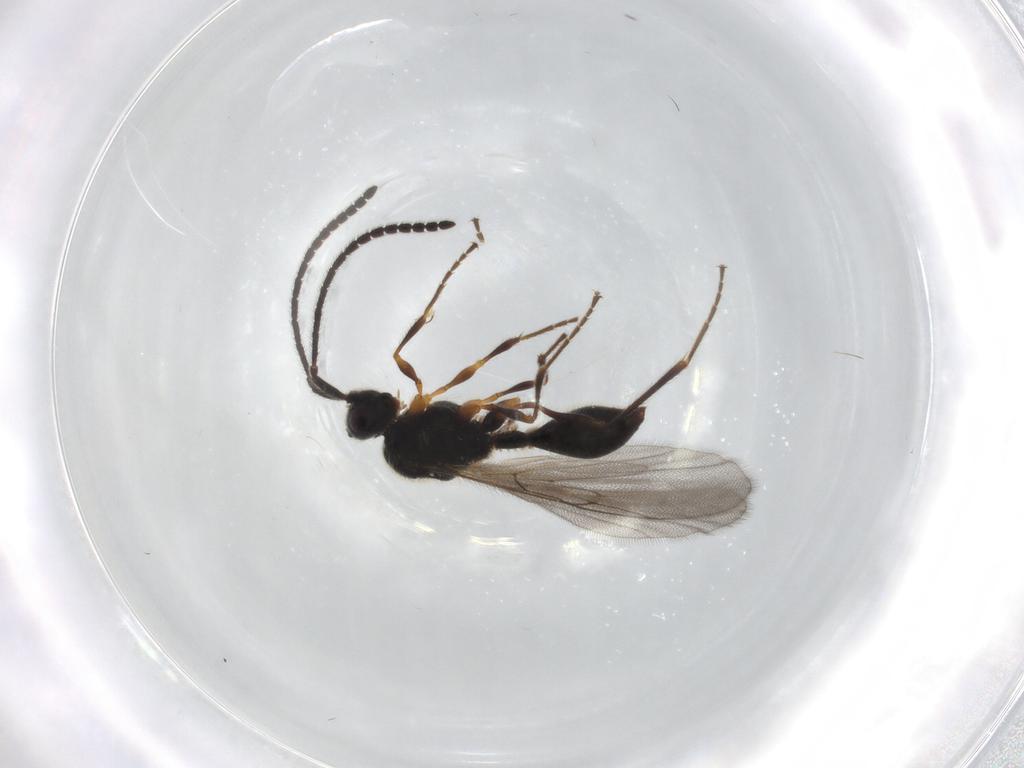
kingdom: Animalia
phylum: Arthropoda
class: Insecta
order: Hymenoptera
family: Diapriidae
